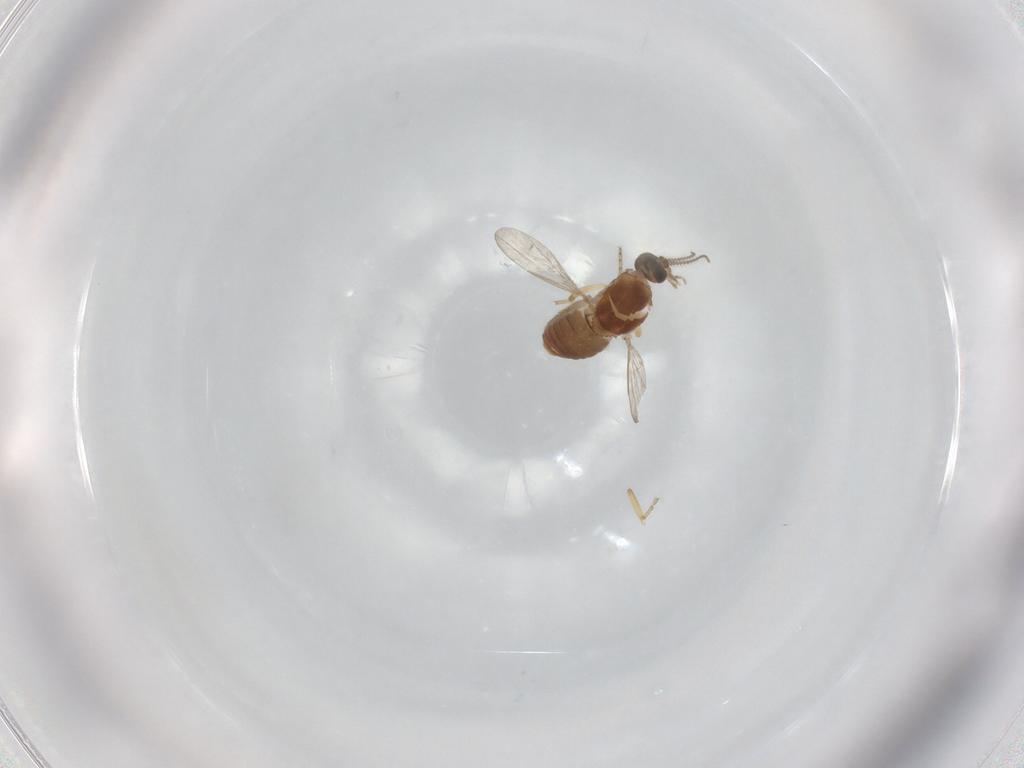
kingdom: Animalia
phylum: Arthropoda
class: Insecta
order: Diptera
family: Ceratopogonidae
